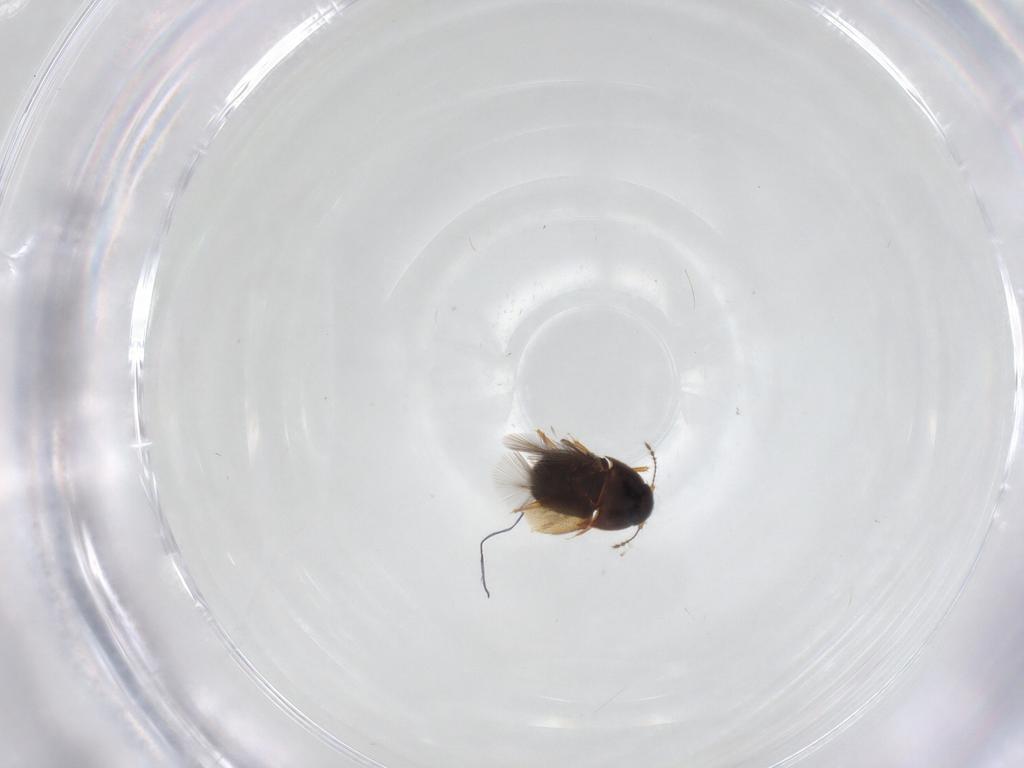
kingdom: Animalia
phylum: Arthropoda
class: Insecta
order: Coleoptera
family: Ptiliidae
